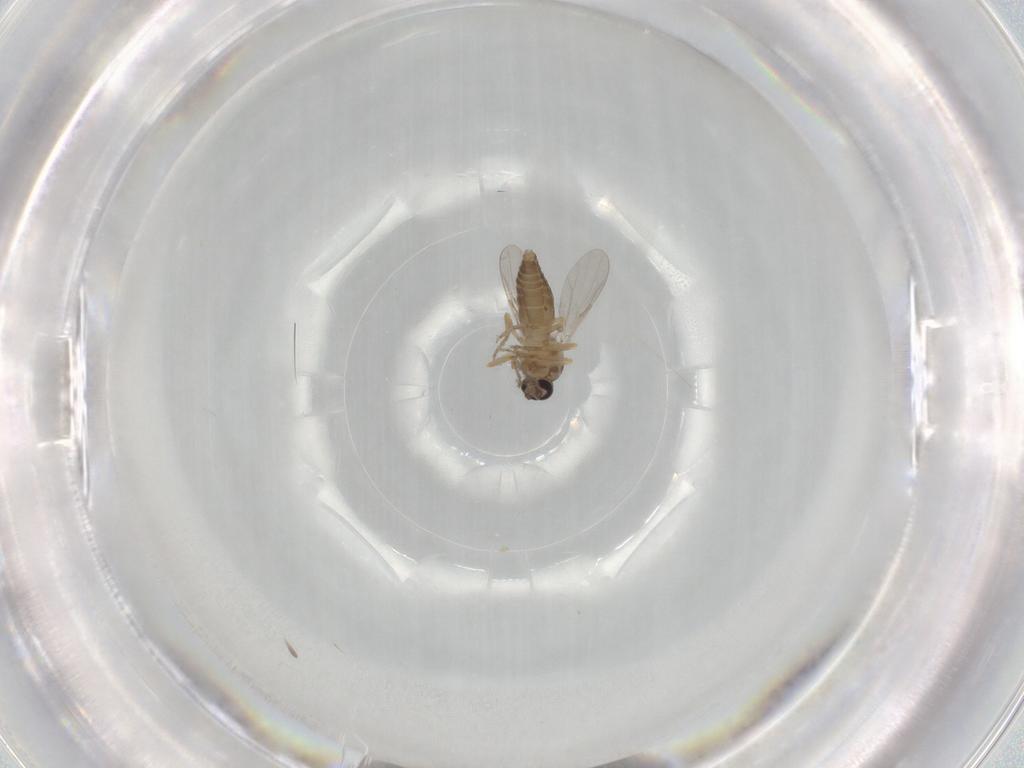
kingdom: Animalia
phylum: Arthropoda
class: Insecta
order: Diptera
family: Ceratopogonidae
